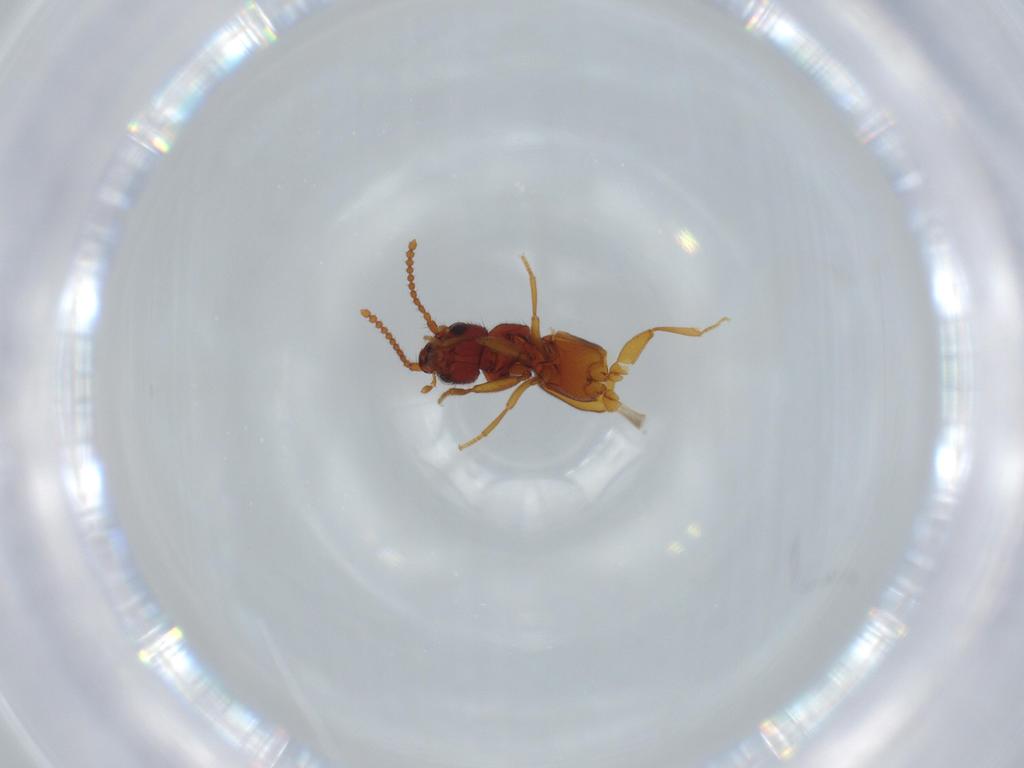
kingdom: Animalia
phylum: Arthropoda
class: Insecta
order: Coleoptera
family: Staphylinidae
